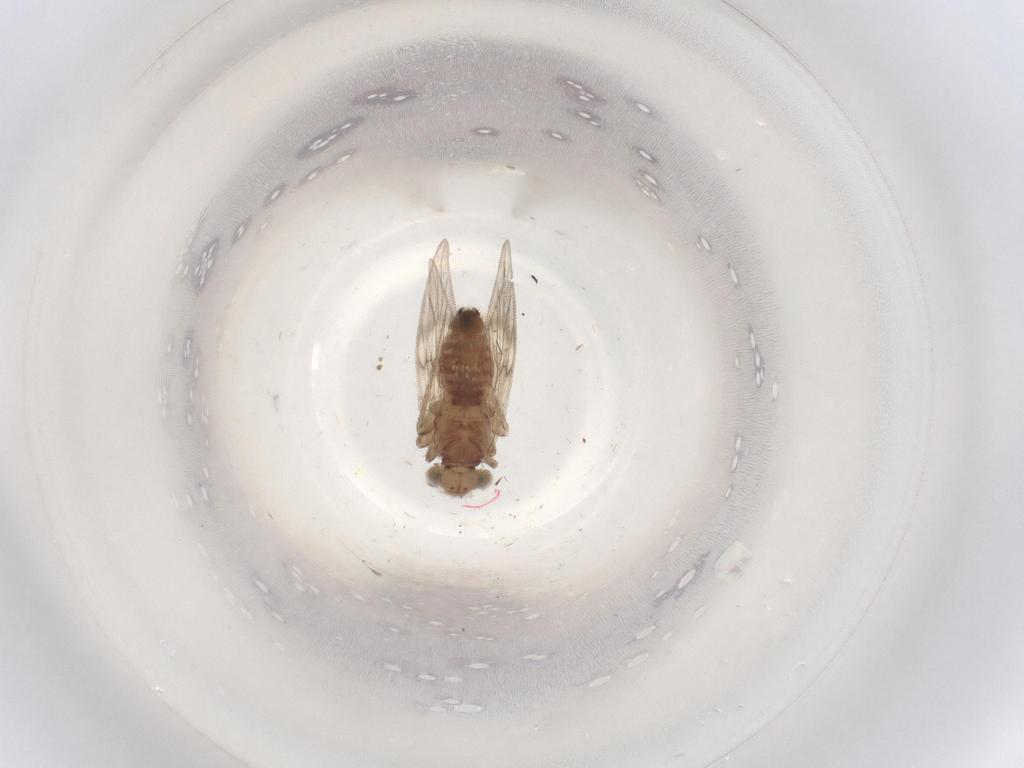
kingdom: Animalia
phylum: Arthropoda
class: Insecta
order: Psocodea
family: Lepidopsocidae
